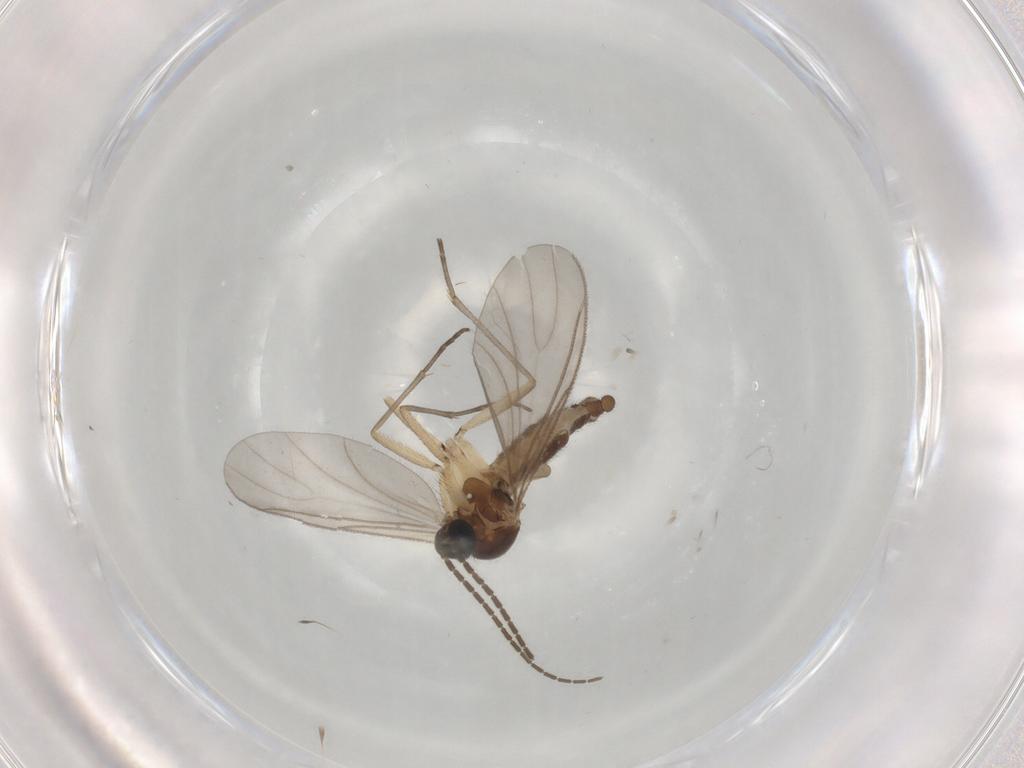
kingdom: Animalia
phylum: Arthropoda
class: Insecta
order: Diptera
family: Sciaridae
